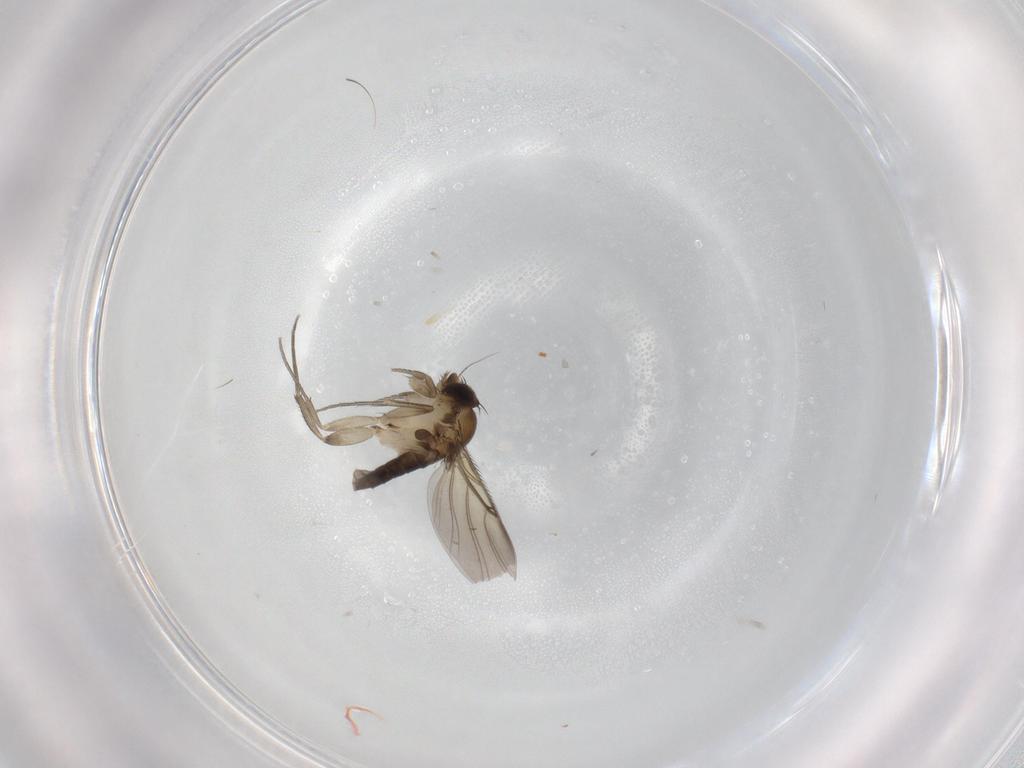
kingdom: Animalia
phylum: Arthropoda
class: Insecta
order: Diptera
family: Phoridae
